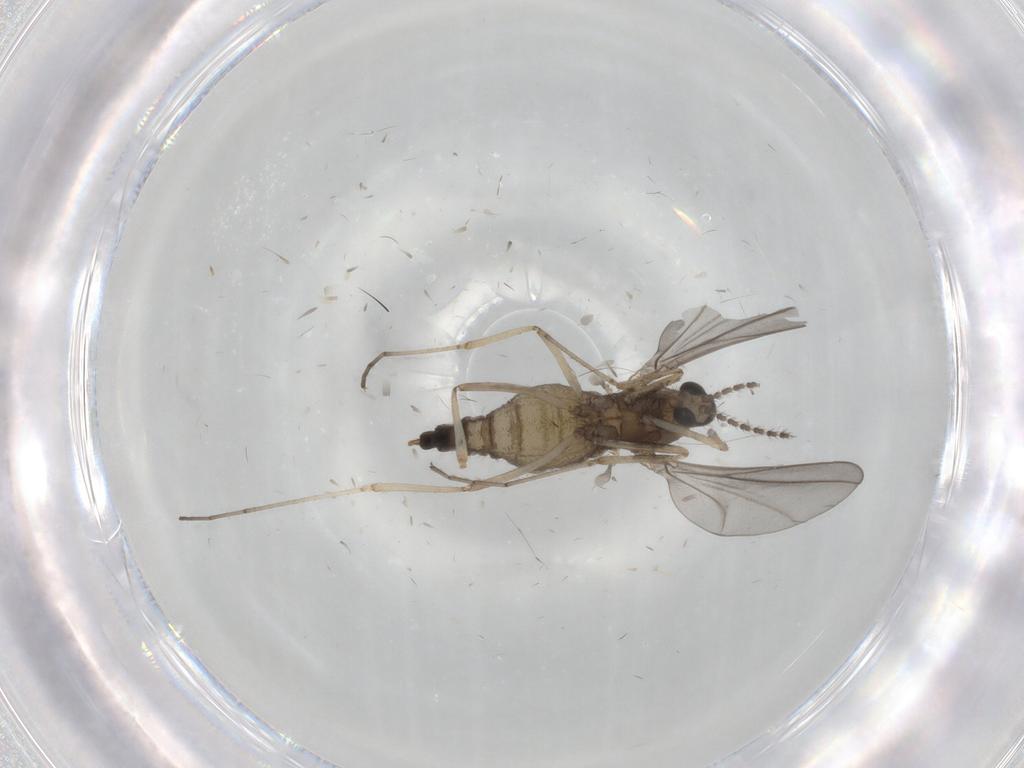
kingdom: Animalia
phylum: Arthropoda
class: Insecta
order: Diptera
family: Cecidomyiidae
